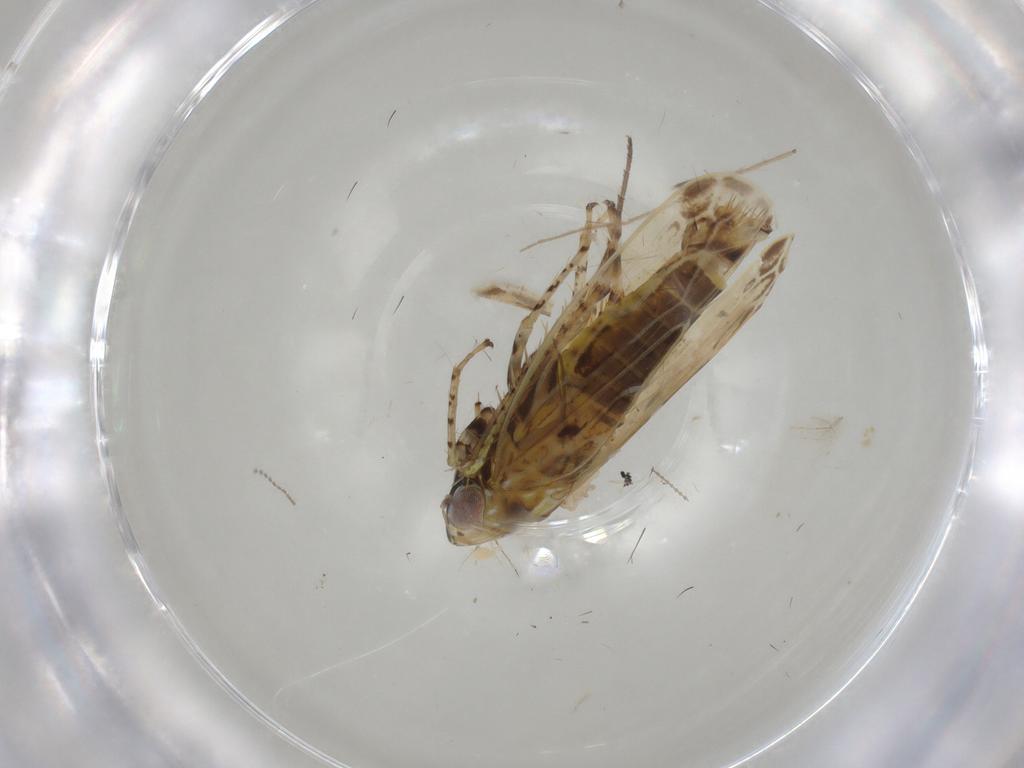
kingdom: Animalia
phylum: Arthropoda
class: Insecta
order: Hemiptera
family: Cicadellidae
